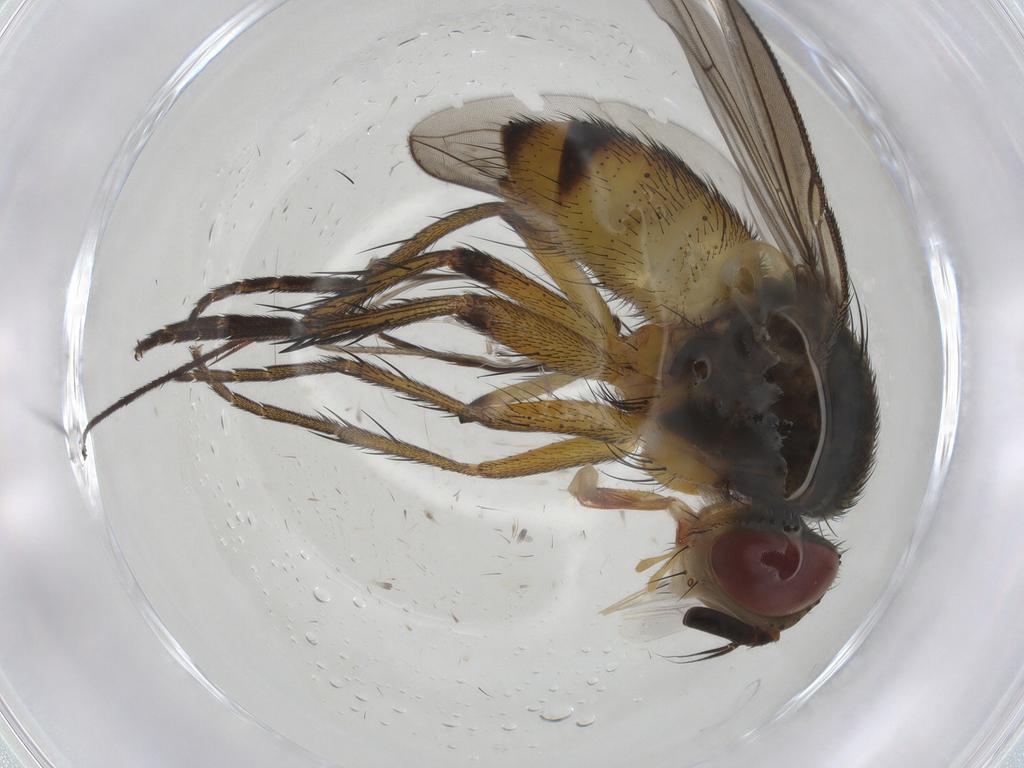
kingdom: Animalia
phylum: Arthropoda
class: Insecta
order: Diptera
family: Tachinidae
